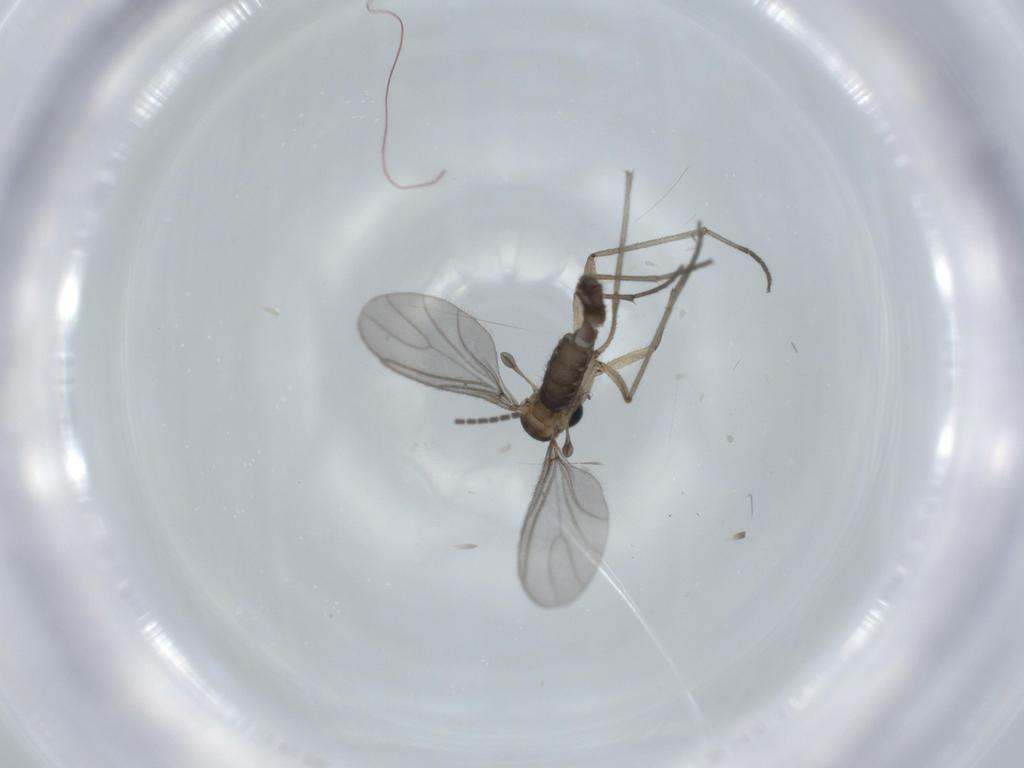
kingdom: Animalia
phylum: Arthropoda
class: Insecta
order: Diptera
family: Sciaridae
